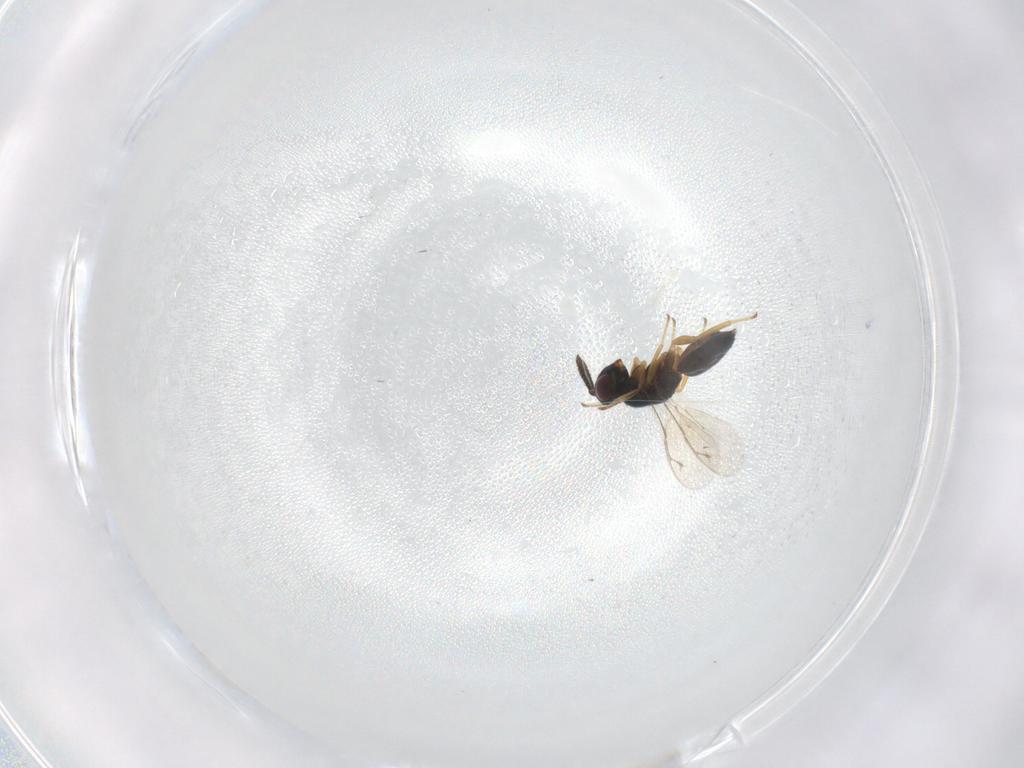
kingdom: Animalia
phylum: Arthropoda
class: Insecta
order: Hymenoptera
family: Pteromalidae
